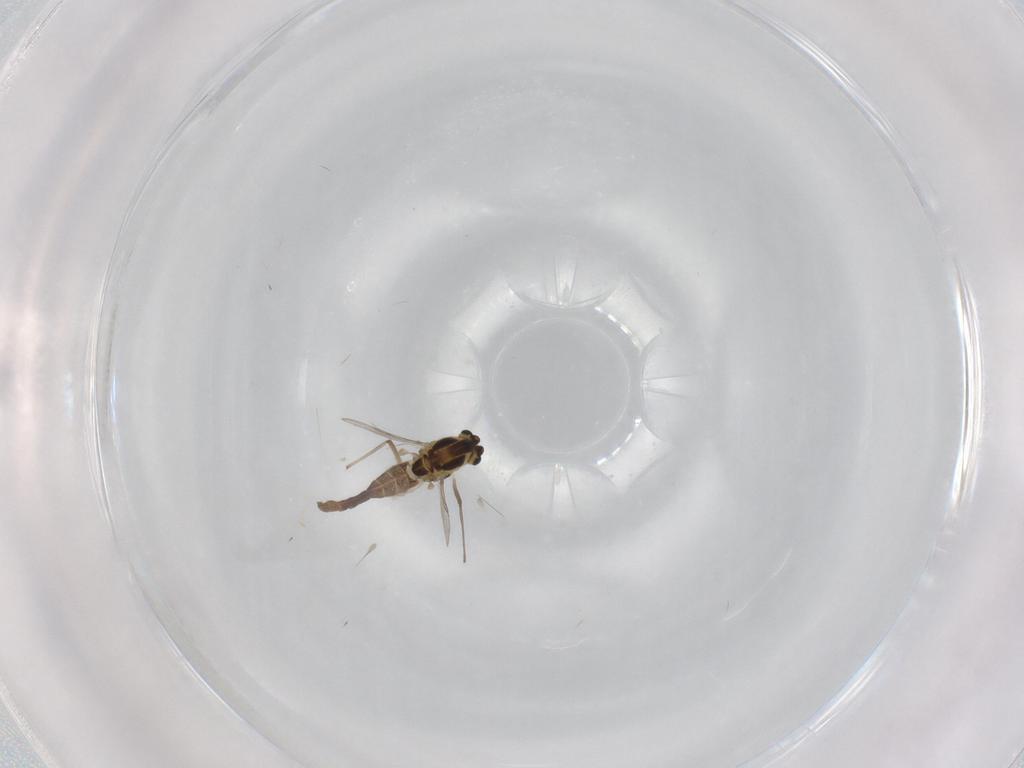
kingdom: Animalia
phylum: Arthropoda
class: Insecta
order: Diptera
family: Chironomidae
